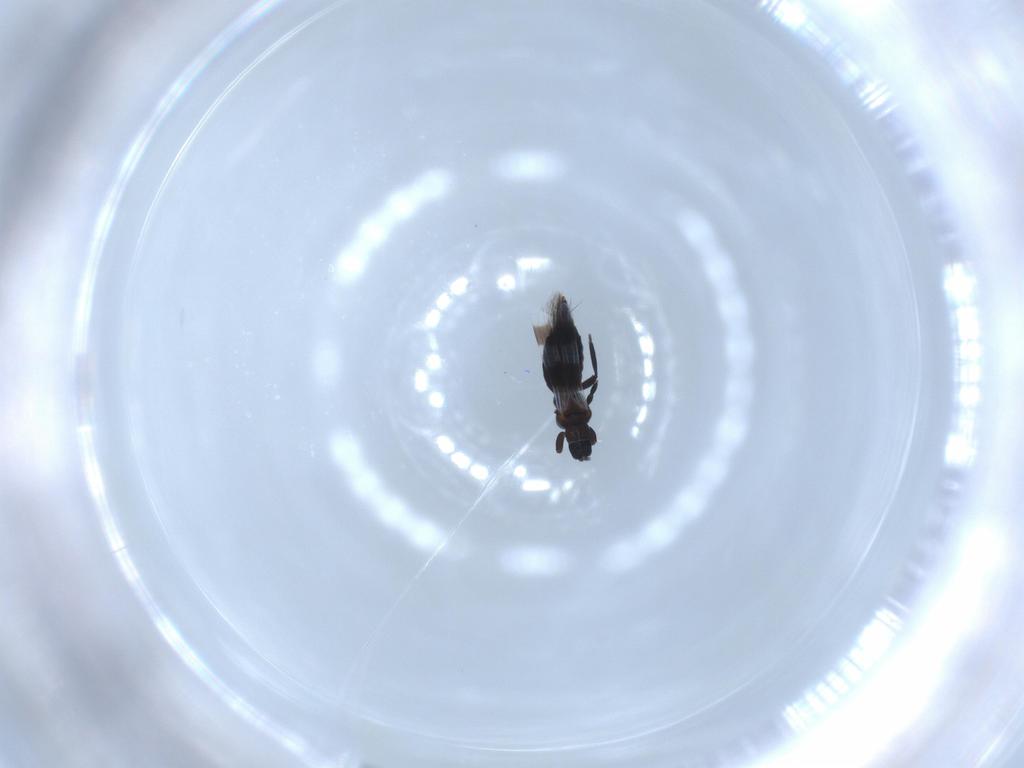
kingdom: Animalia
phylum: Arthropoda
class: Insecta
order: Thysanoptera
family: Aeolothripidae
